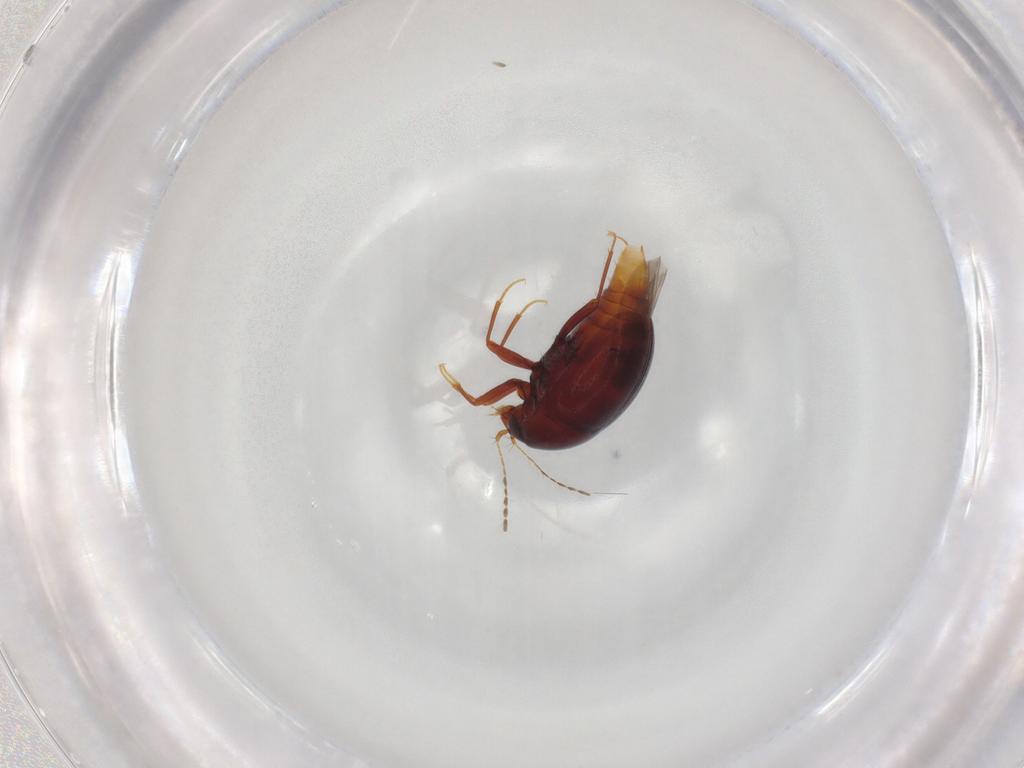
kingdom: Animalia
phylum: Arthropoda
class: Insecta
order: Coleoptera
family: Staphylinidae
